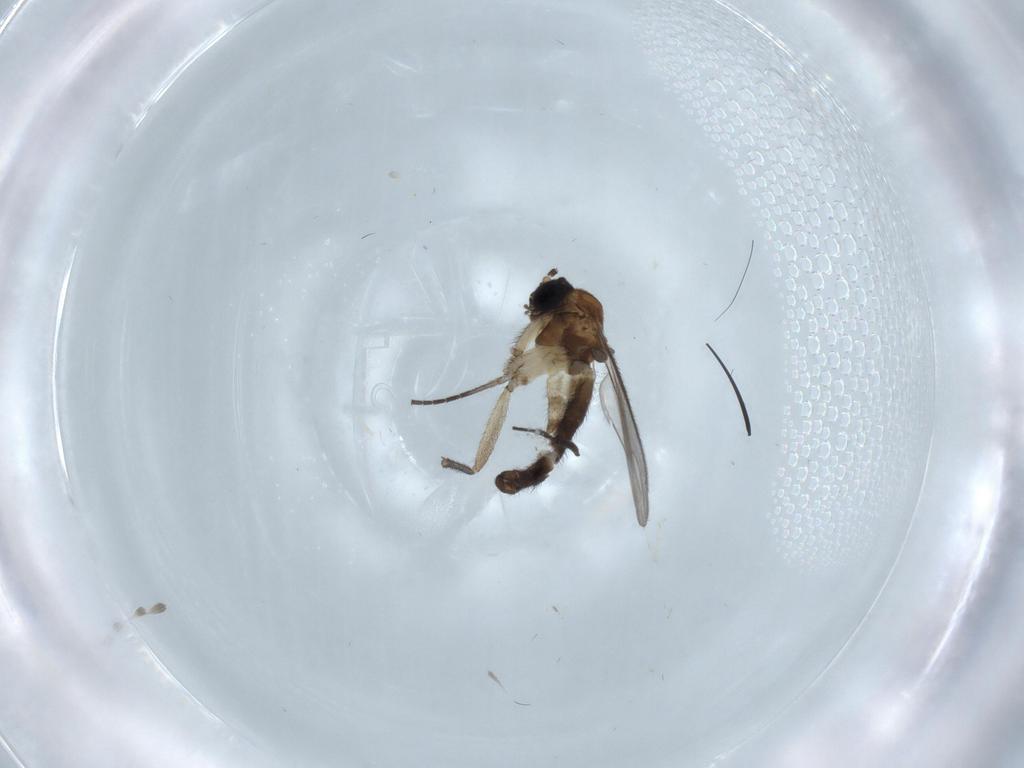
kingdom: Animalia
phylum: Arthropoda
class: Insecta
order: Diptera
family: Sciaridae
